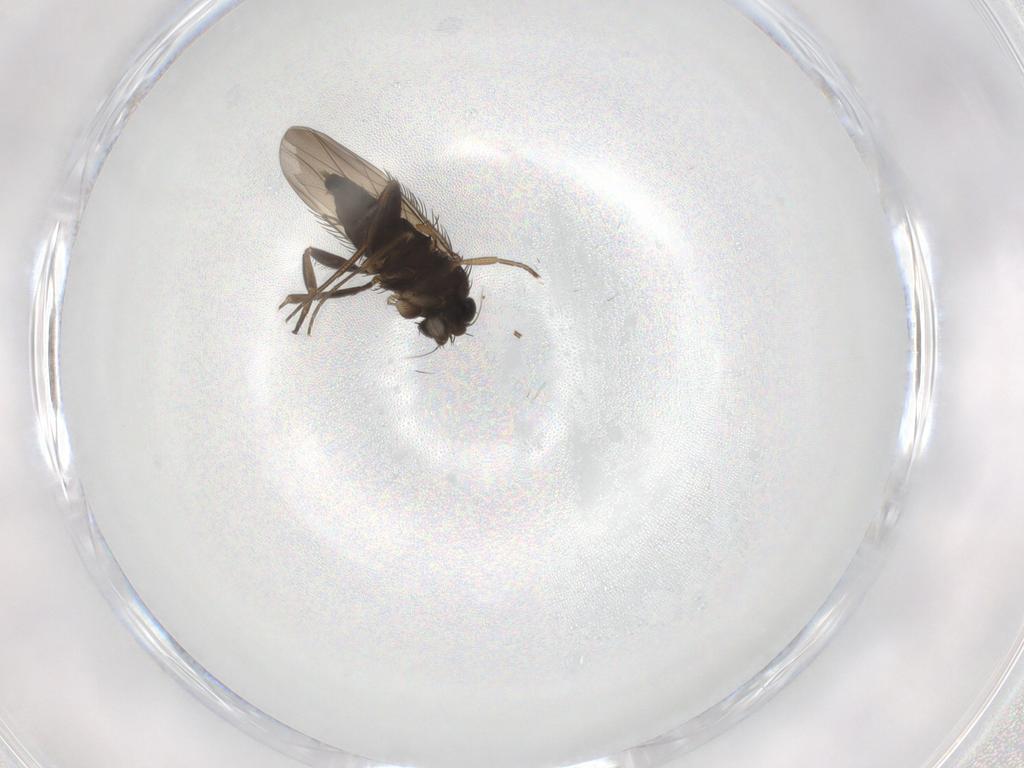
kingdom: Animalia
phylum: Arthropoda
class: Insecta
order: Diptera
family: Phoridae
